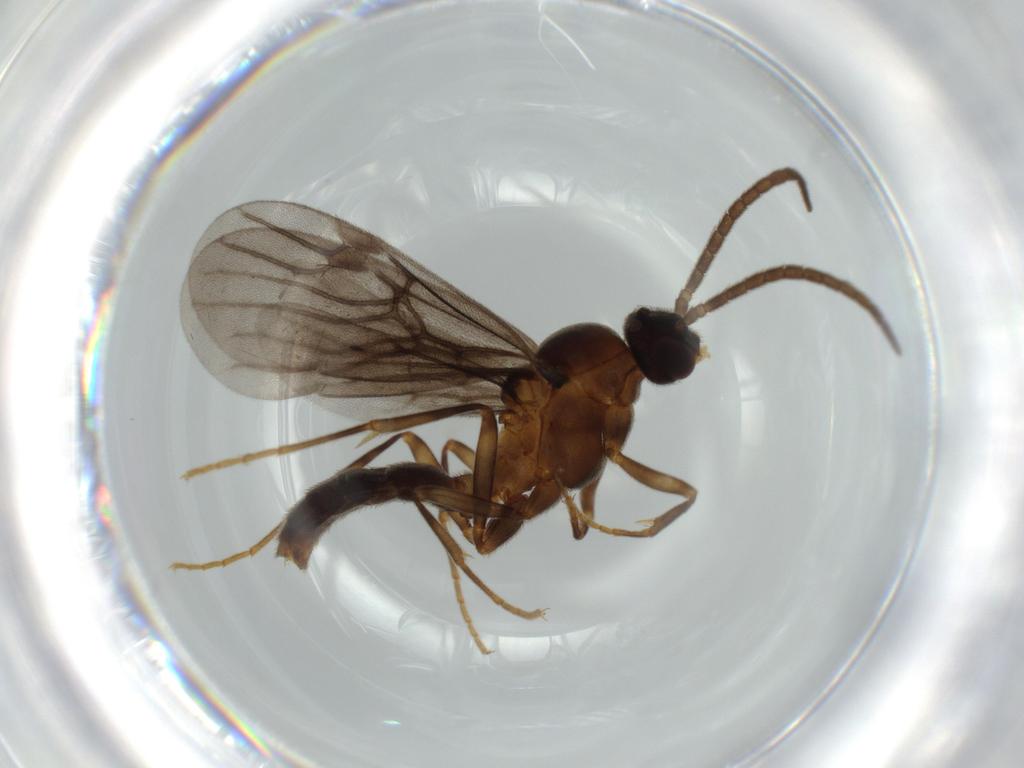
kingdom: Animalia
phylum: Arthropoda
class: Insecta
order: Hymenoptera
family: Formicidae
